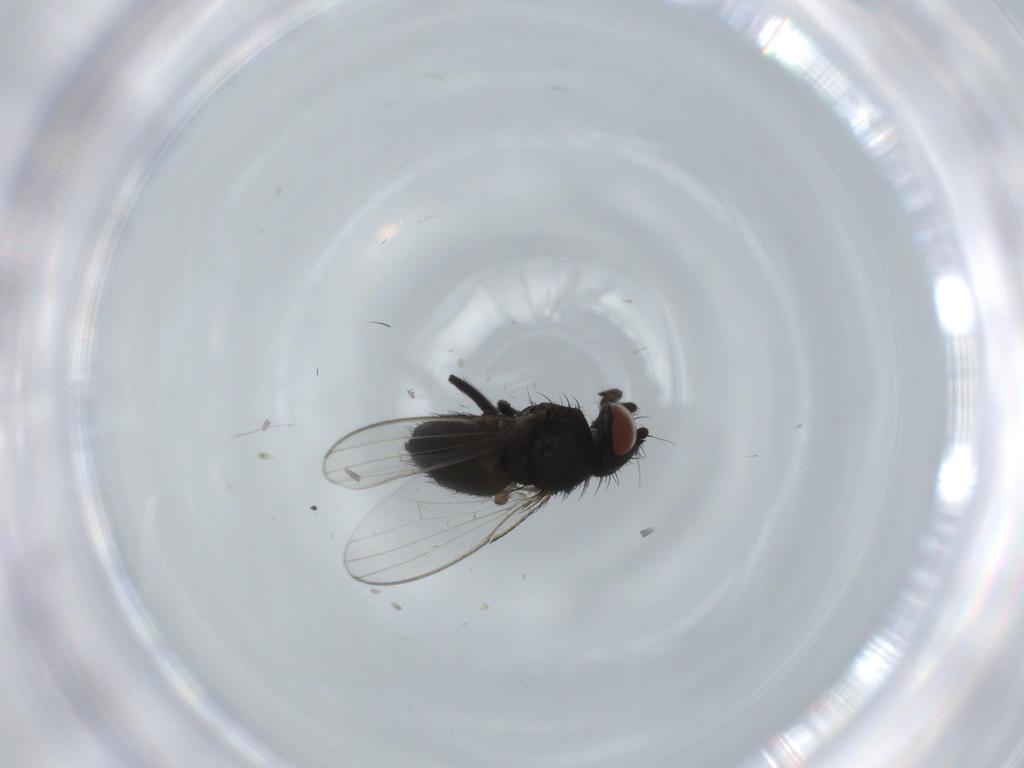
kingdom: Animalia
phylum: Arthropoda
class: Insecta
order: Diptera
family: Milichiidae
